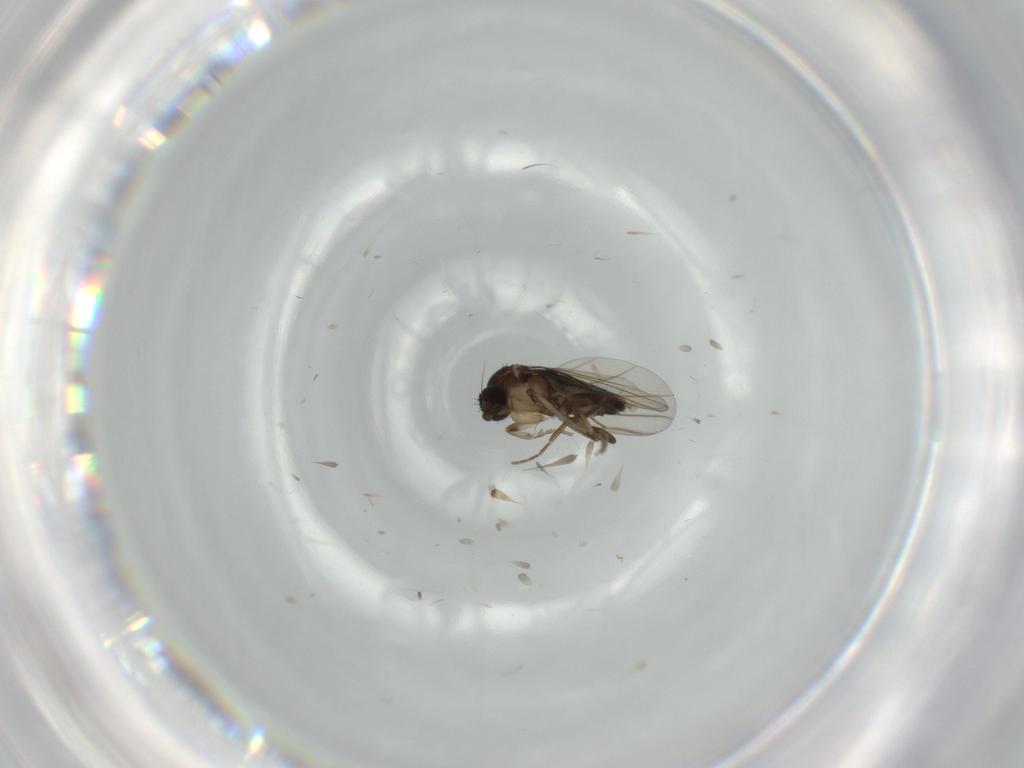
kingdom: Animalia
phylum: Arthropoda
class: Insecta
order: Diptera
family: Phoridae
